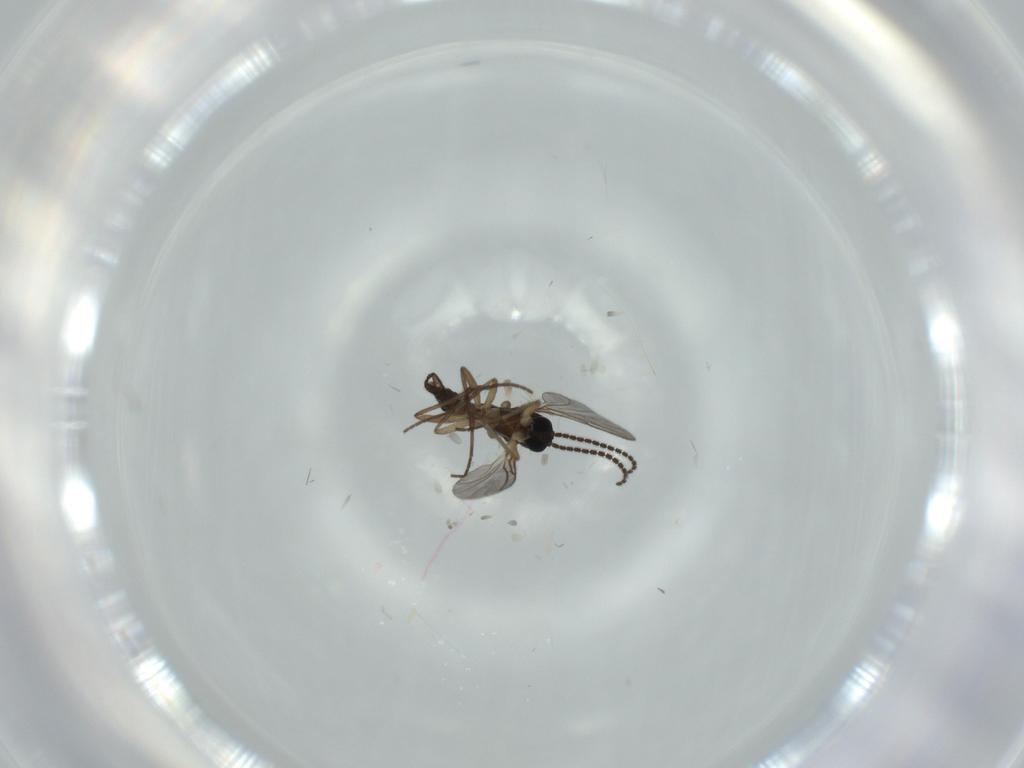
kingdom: Animalia
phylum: Arthropoda
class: Insecta
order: Diptera
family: Sciaridae
